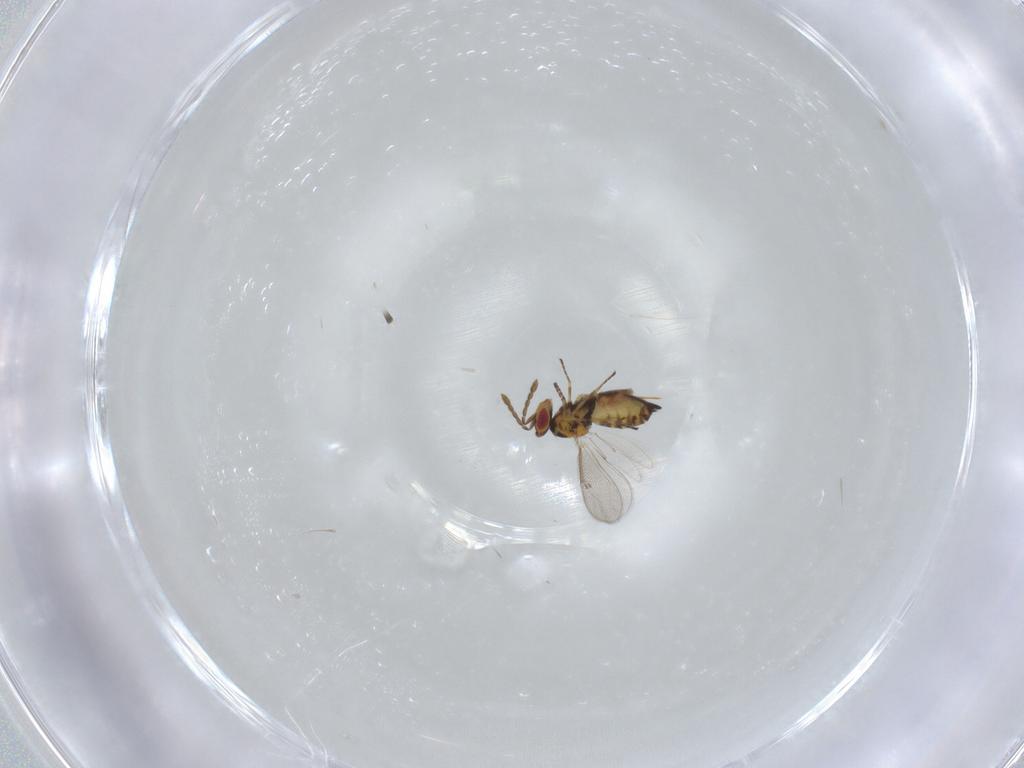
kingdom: Animalia
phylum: Arthropoda
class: Insecta
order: Hymenoptera
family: Eulophidae
